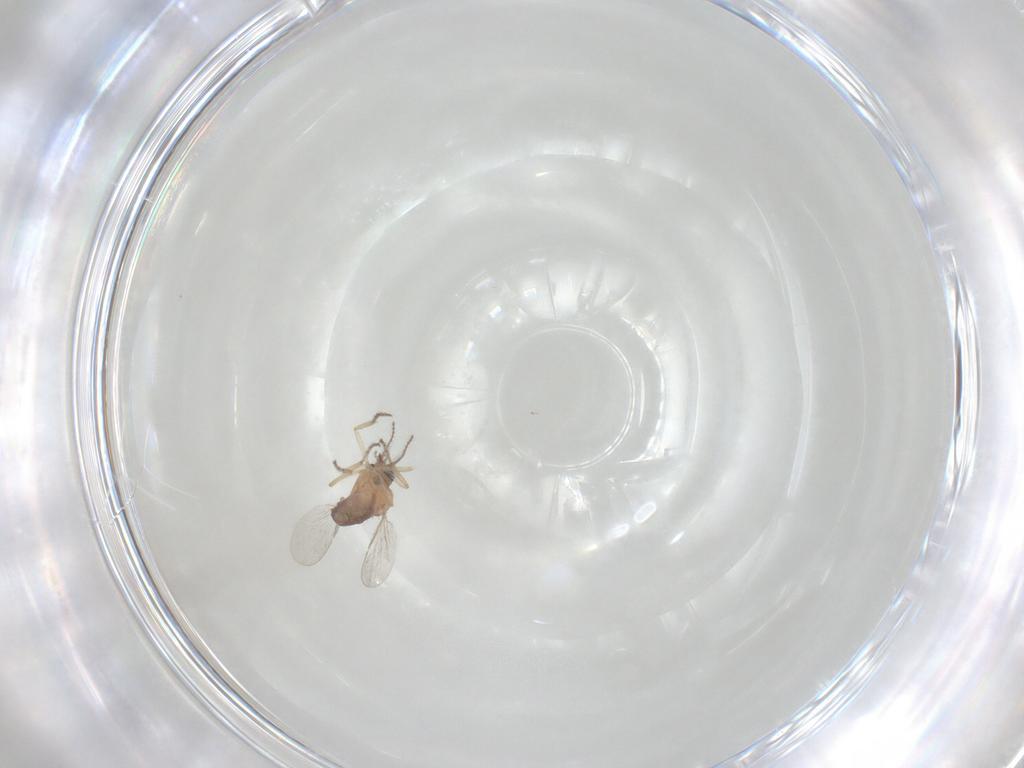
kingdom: Animalia
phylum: Arthropoda
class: Insecta
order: Diptera
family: Ceratopogonidae
